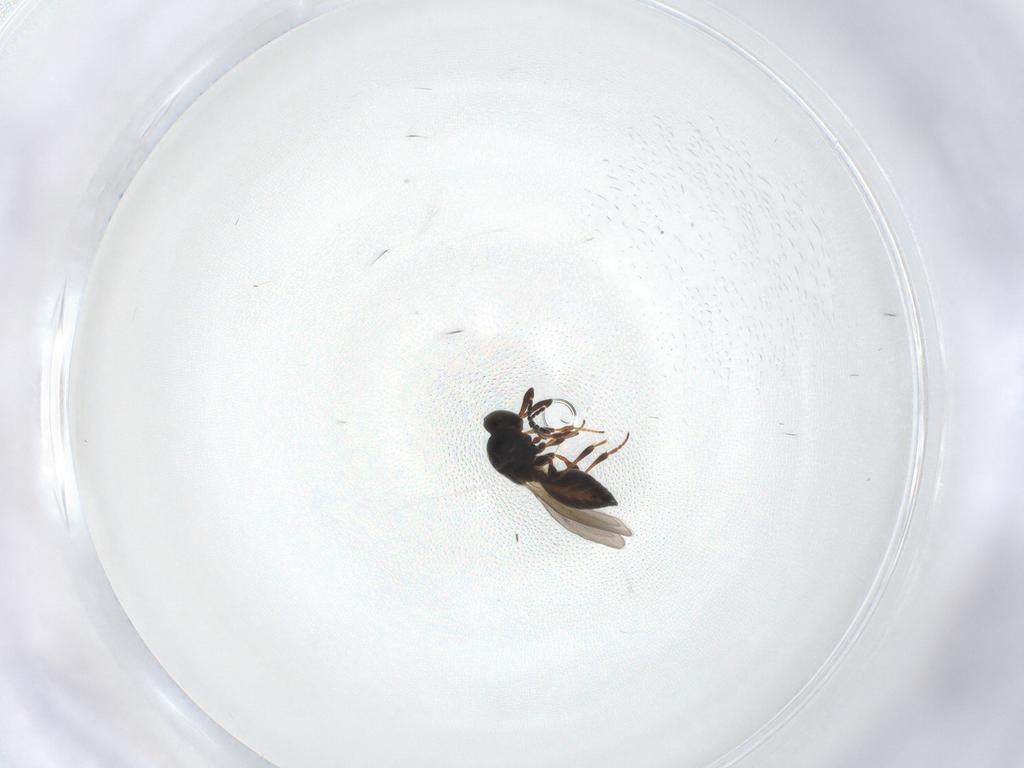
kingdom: Animalia
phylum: Arthropoda
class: Insecta
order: Hymenoptera
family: Platygastridae
